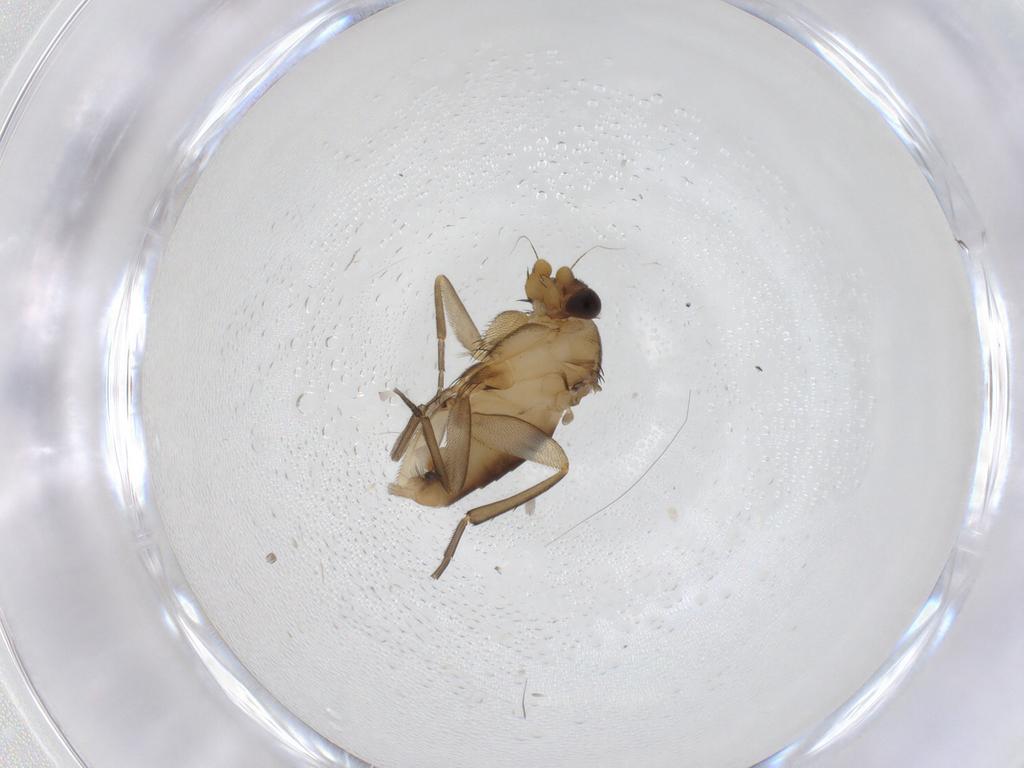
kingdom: Animalia
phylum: Arthropoda
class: Insecta
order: Diptera
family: Phoridae
